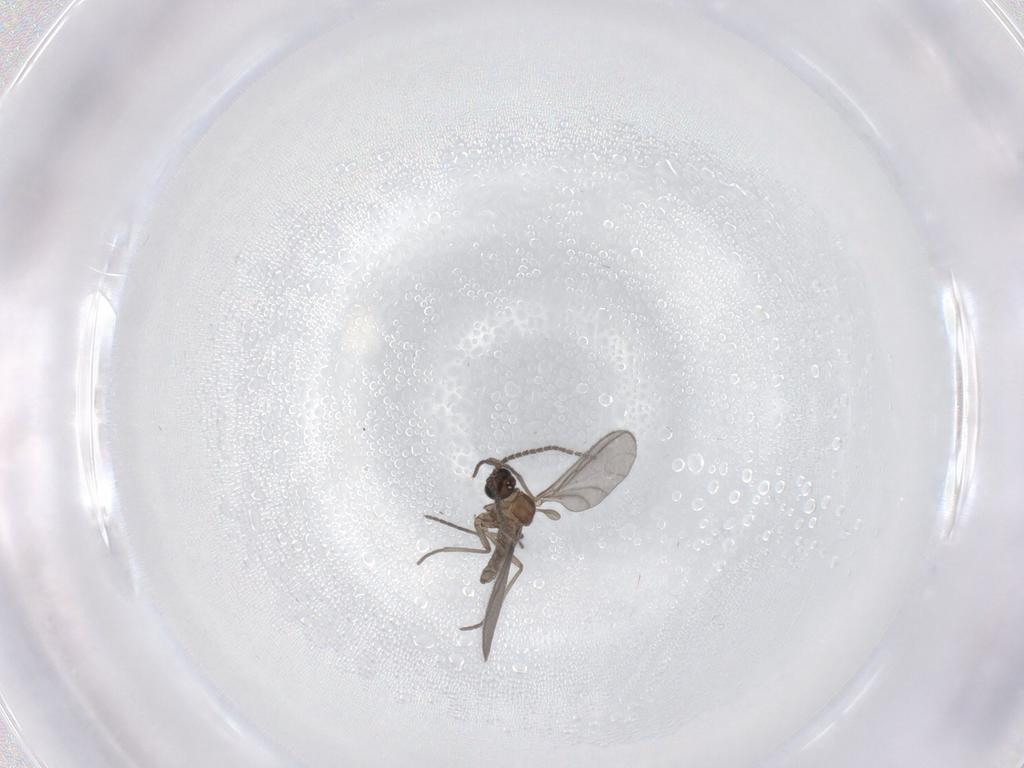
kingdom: Animalia
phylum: Arthropoda
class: Insecta
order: Diptera
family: Sciaridae
